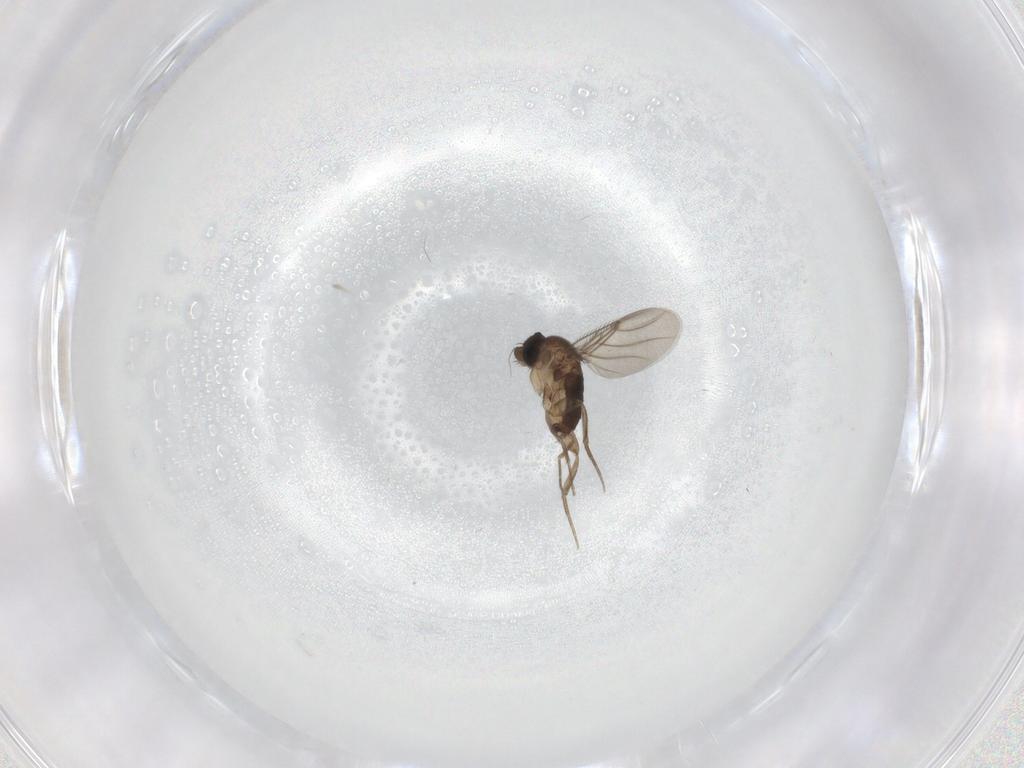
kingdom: Animalia
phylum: Arthropoda
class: Insecta
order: Diptera
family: Phoridae
